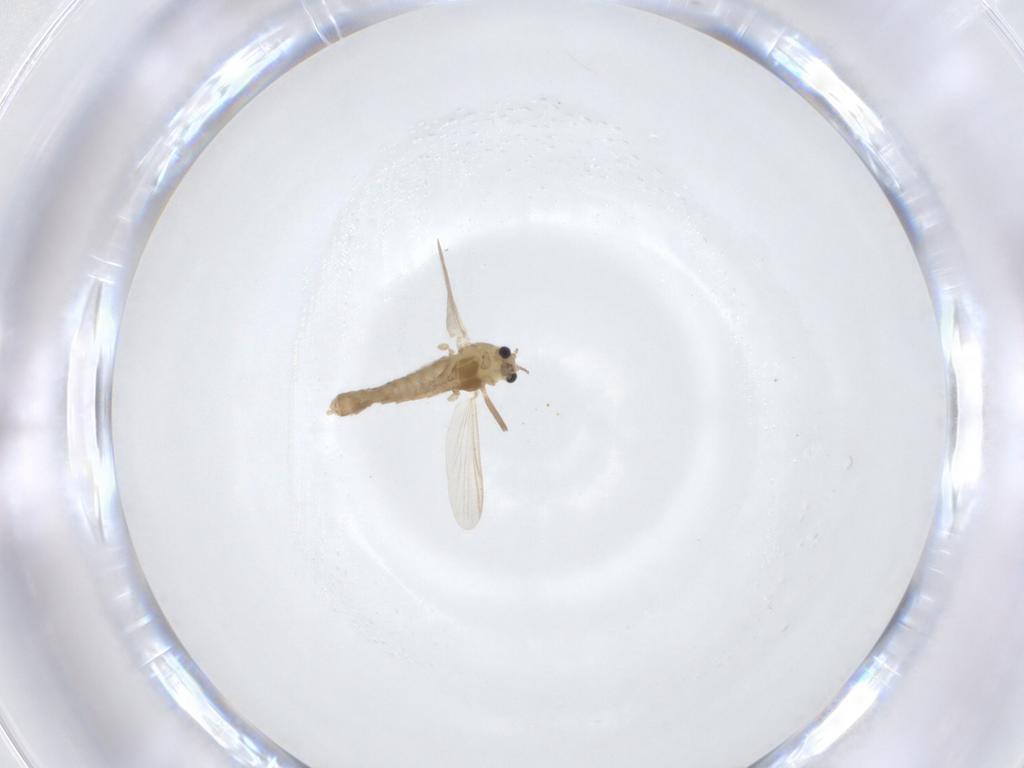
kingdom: Animalia
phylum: Arthropoda
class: Insecta
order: Diptera
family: Chironomidae
